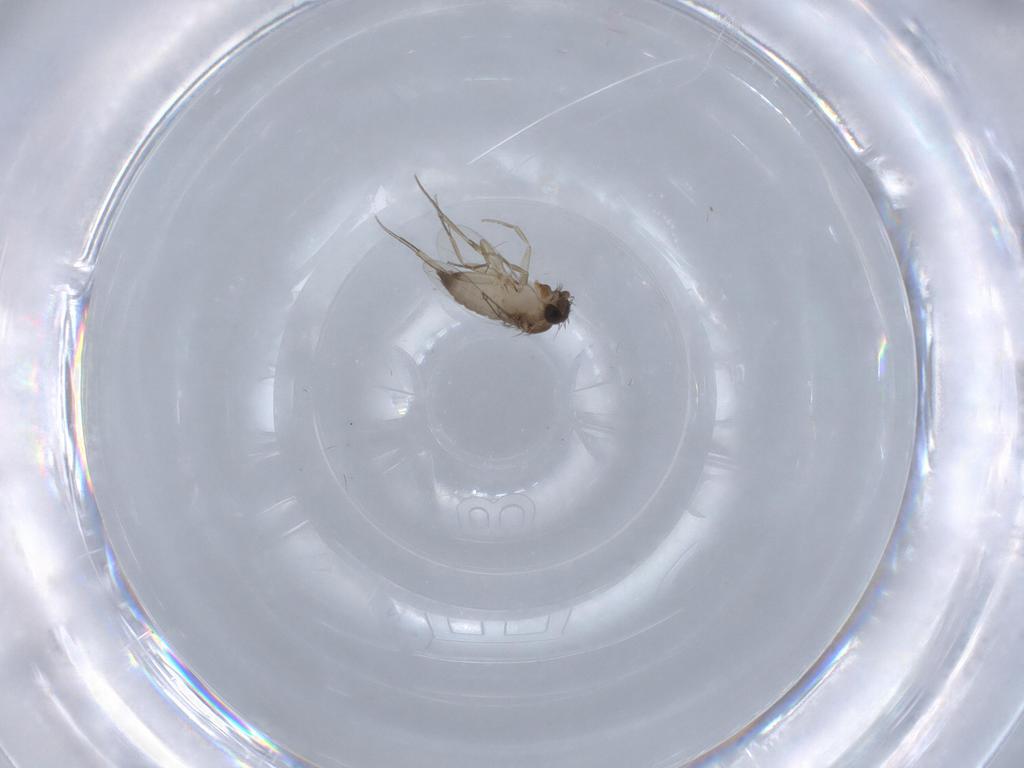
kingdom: Animalia
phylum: Arthropoda
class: Insecta
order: Diptera
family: Phoridae
